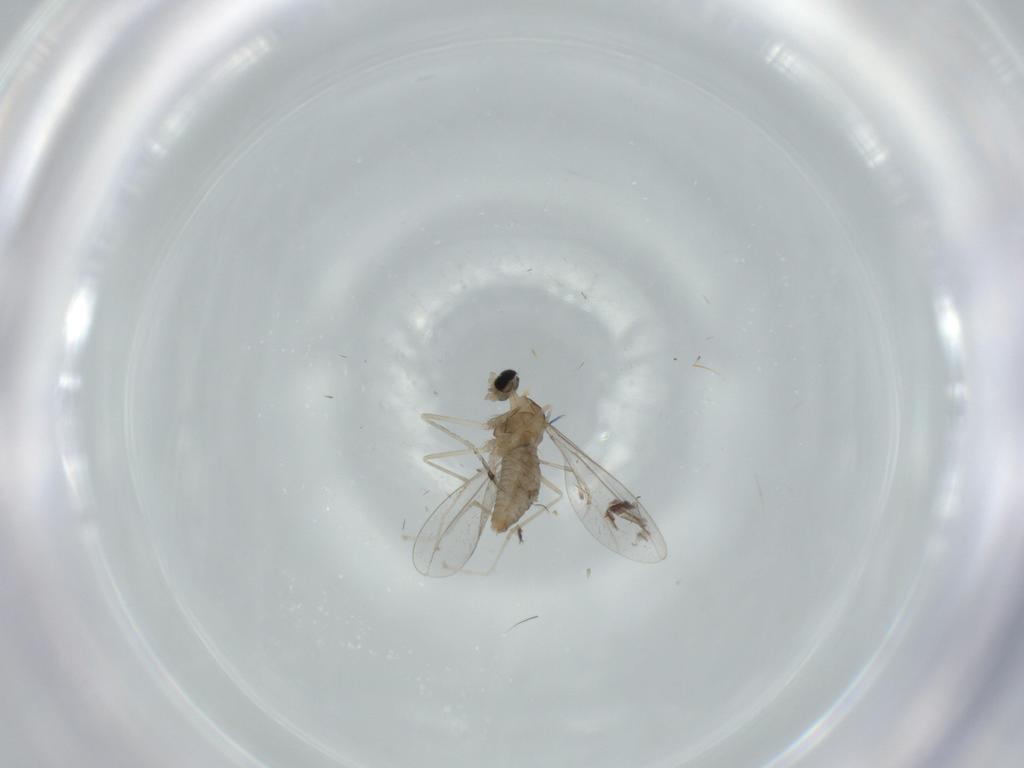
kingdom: Animalia
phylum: Arthropoda
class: Insecta
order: Diptera
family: Cecidomyiidae
